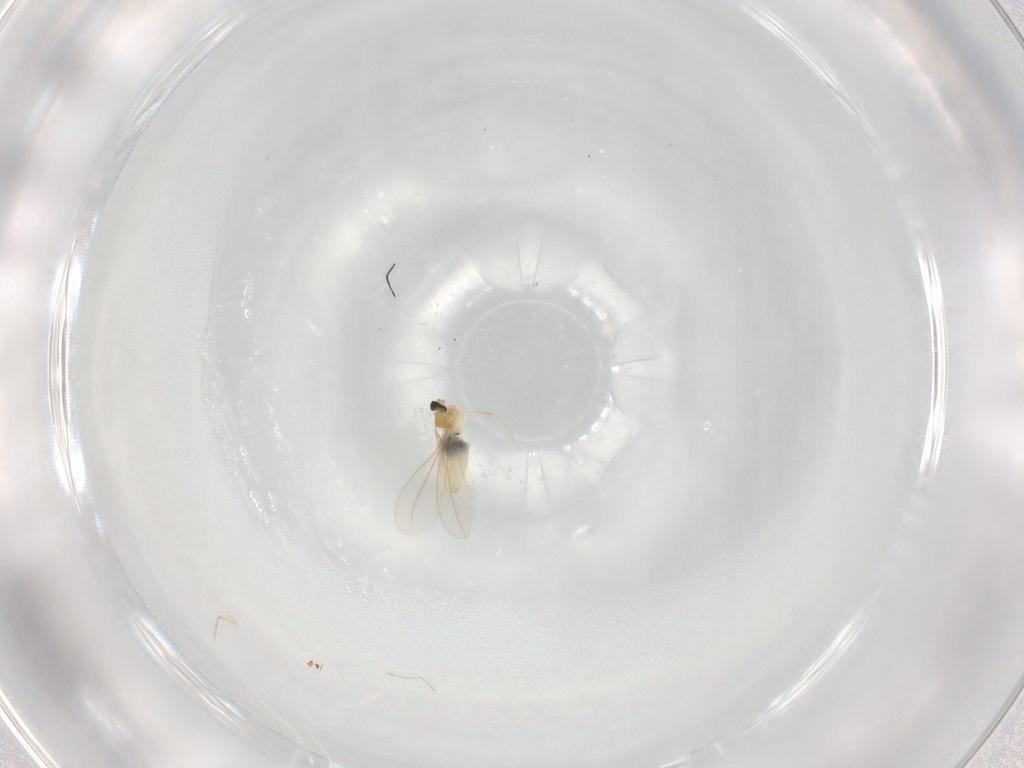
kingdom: Animalia
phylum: Arthropoda
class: Insecta
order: Diptera
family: Cecidomyiidae
